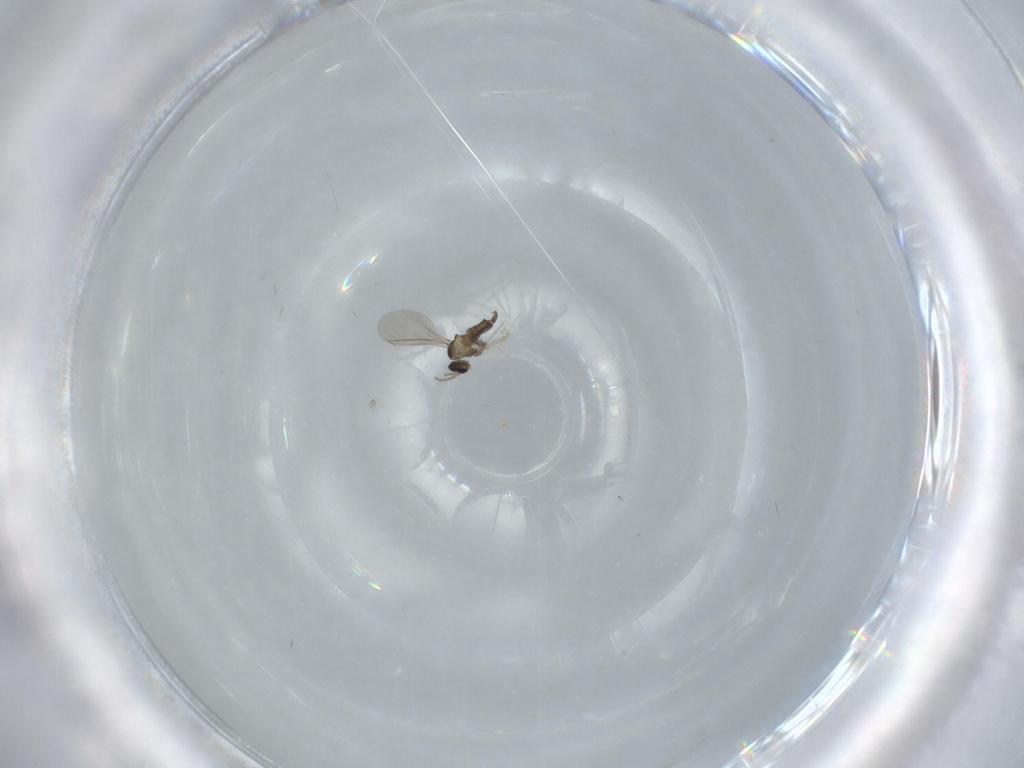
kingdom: Animalia
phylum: Arthropoda
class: Insecta
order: Diptera
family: Cecidomyiidae
